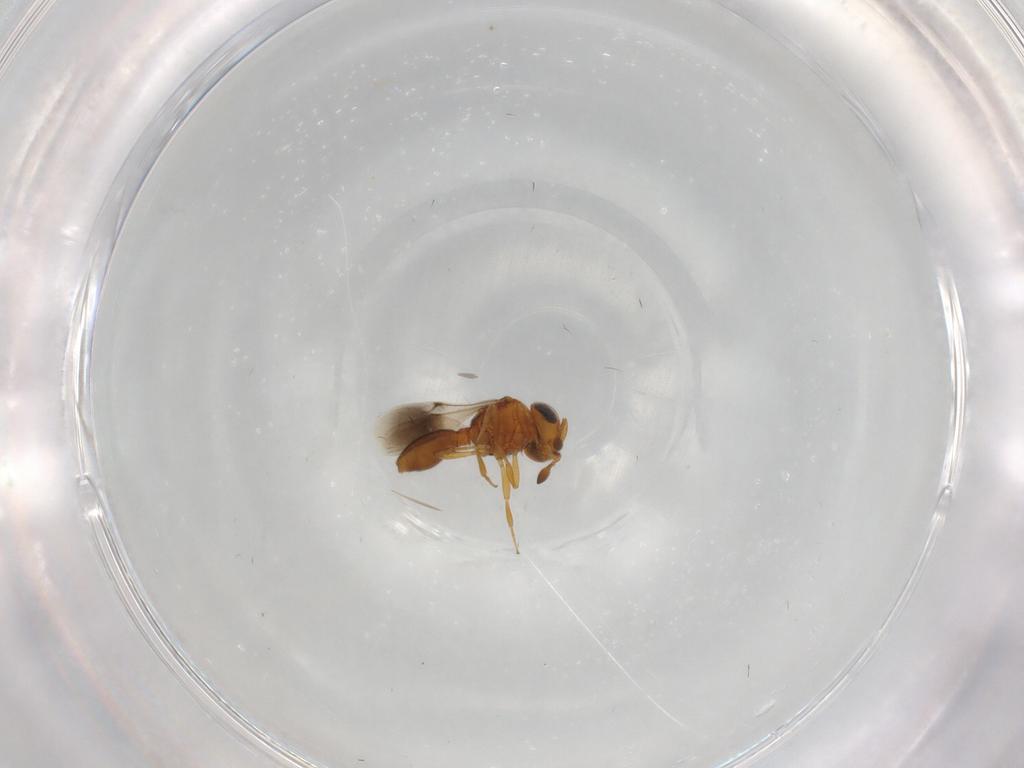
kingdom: Animalia
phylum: Arthropoda
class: Insecta
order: Hymenoptera
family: Scelionidae
